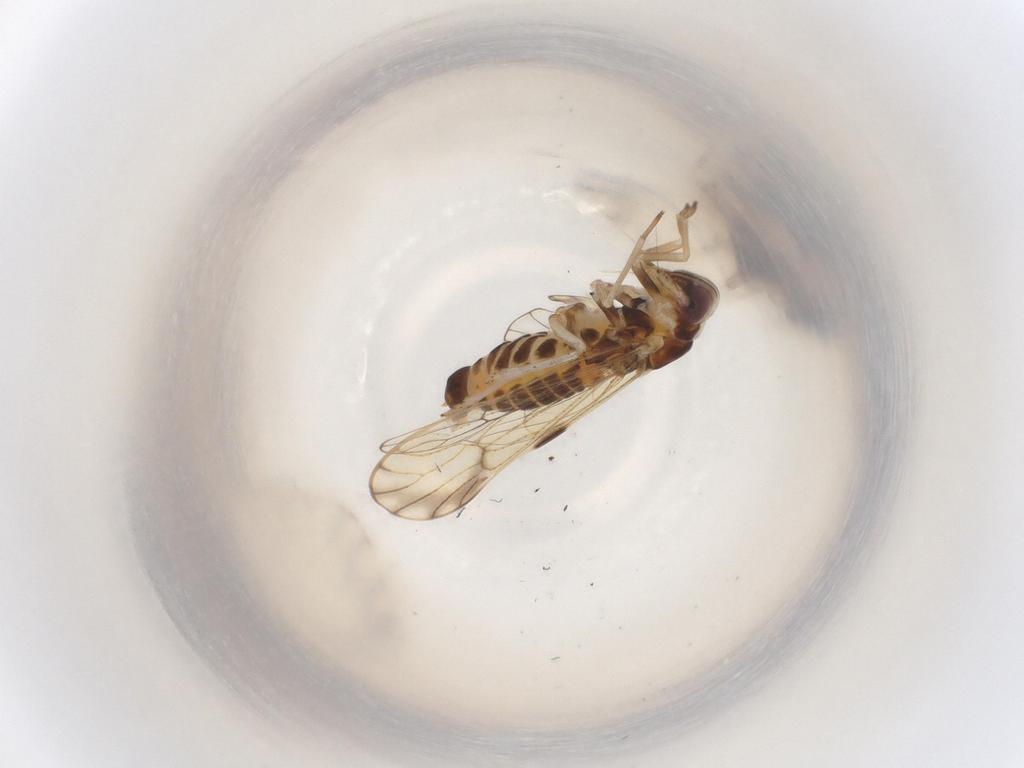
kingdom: Animalia
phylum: Arthropoda
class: Insecta
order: Hemiptera
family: Delphacidae
